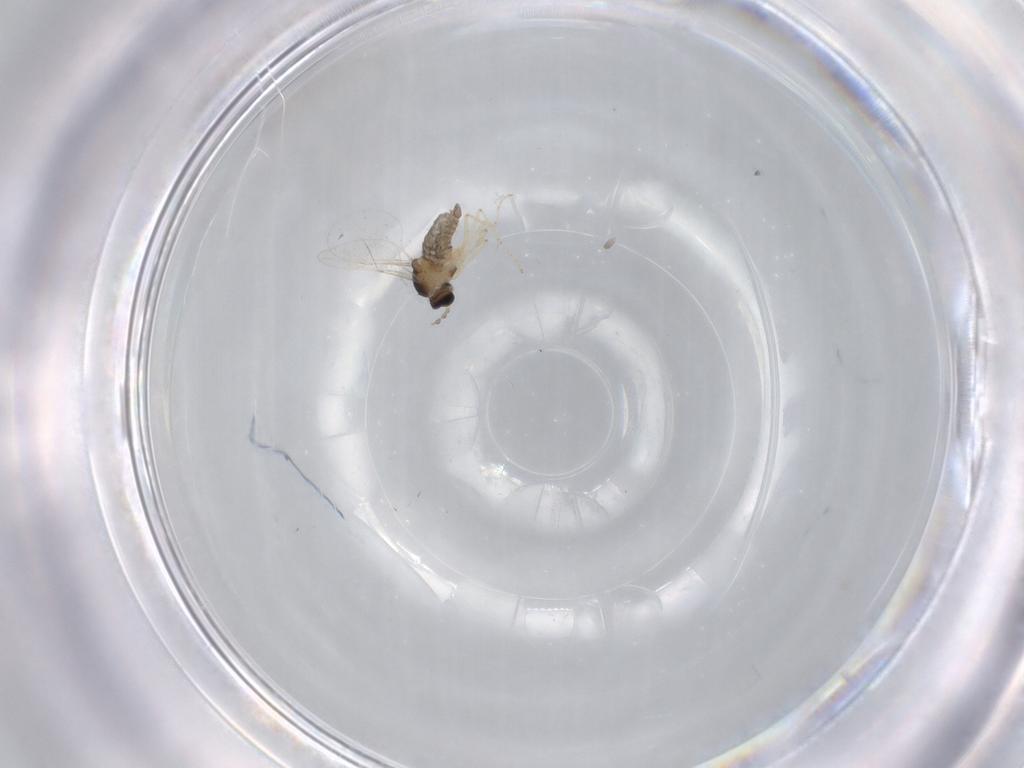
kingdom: Animalia
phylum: Arthropoda
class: Insecta
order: Diptera
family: Cecidomyiidae
